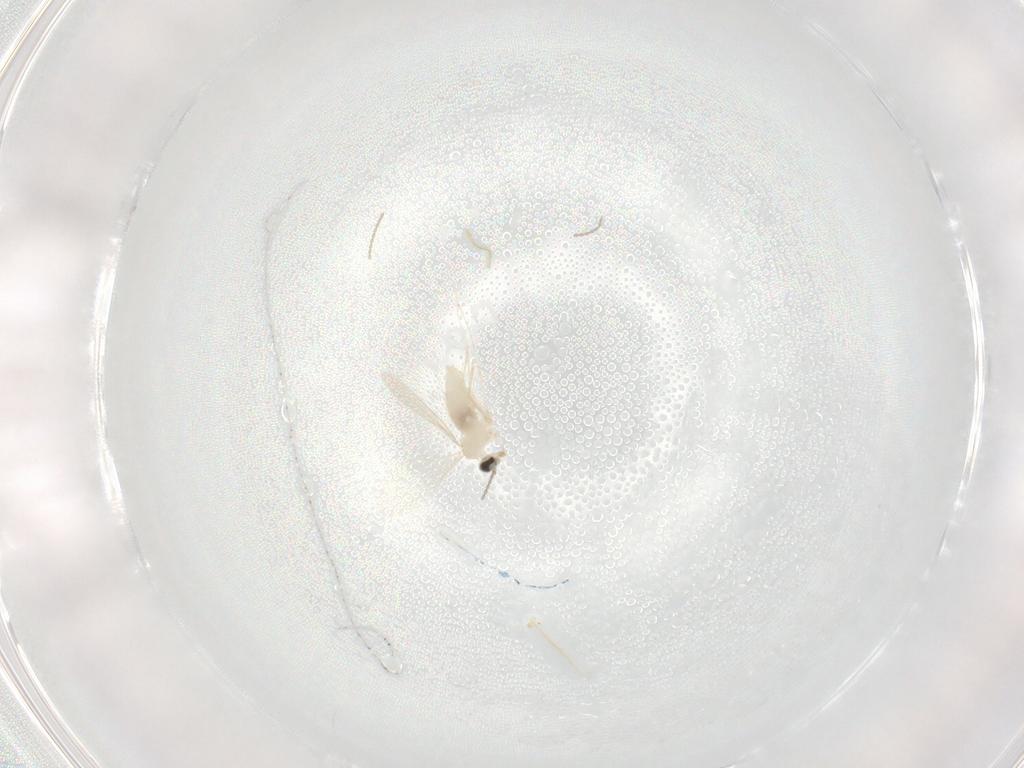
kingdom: Animalia
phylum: Arthropoda
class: Insecta
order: Diptera
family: Cecidomyiidae
